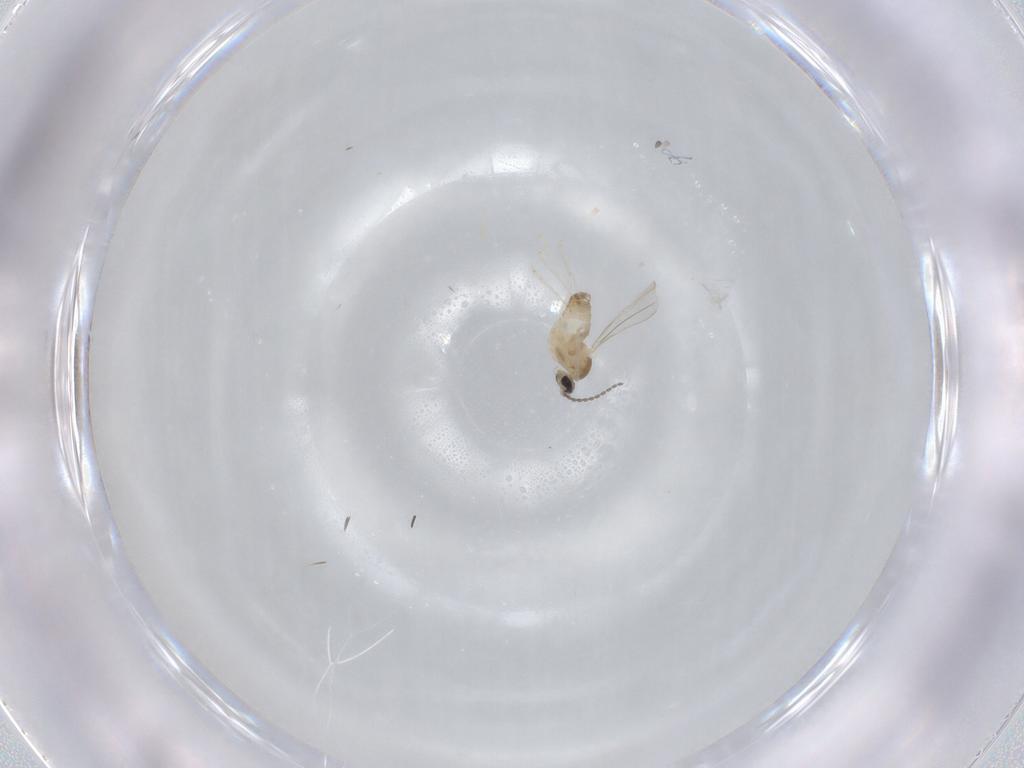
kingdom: Animalia
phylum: Arthropoda
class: Insecta
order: Diptera
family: Cecidomyiidae
